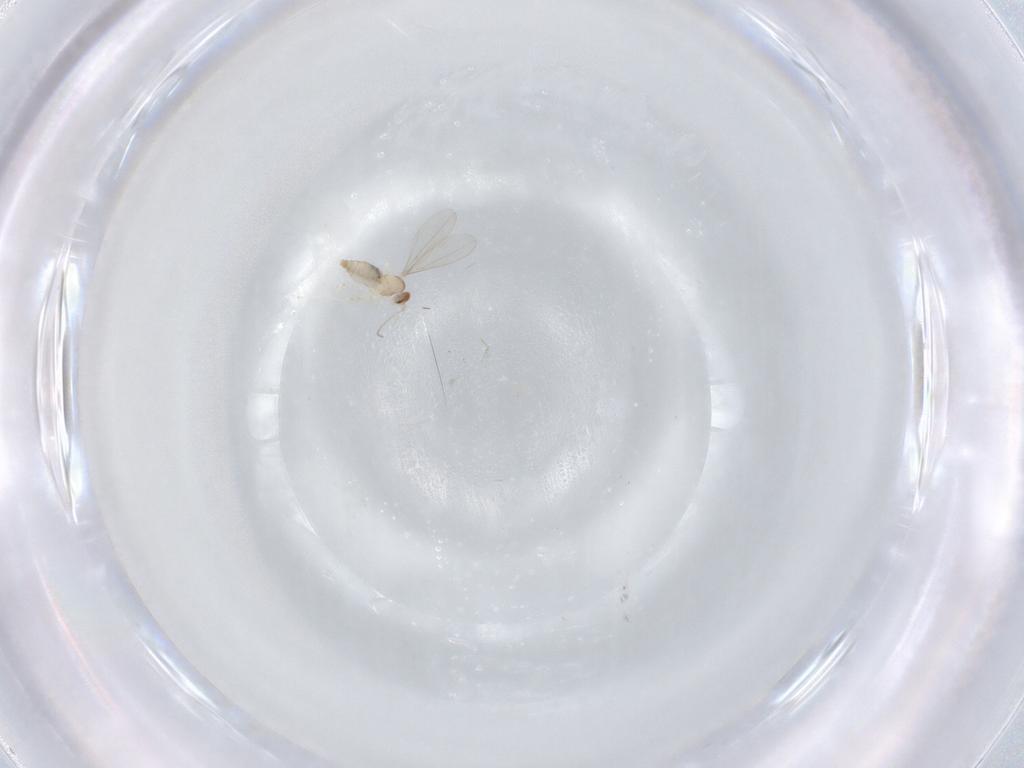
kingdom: Animalia
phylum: Arthropoda
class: Insecta
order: Diptera
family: Cecidomyiidae
